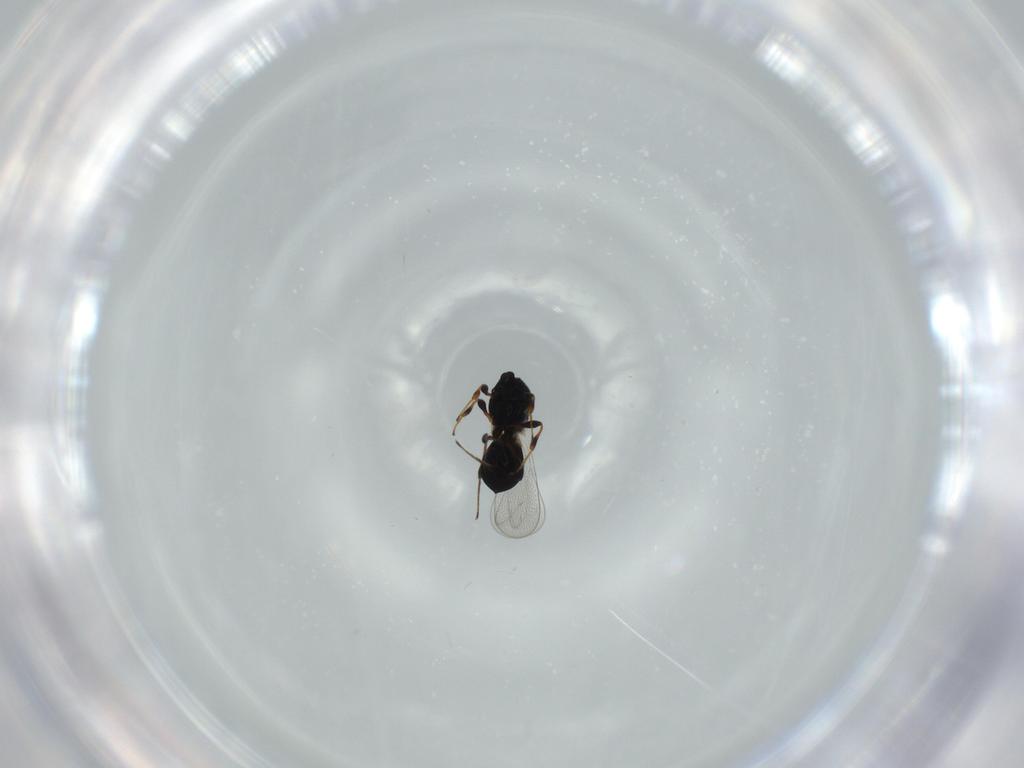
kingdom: Animalia
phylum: Arthropoda
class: Insecta
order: Hymenoptera
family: Platygastridae
